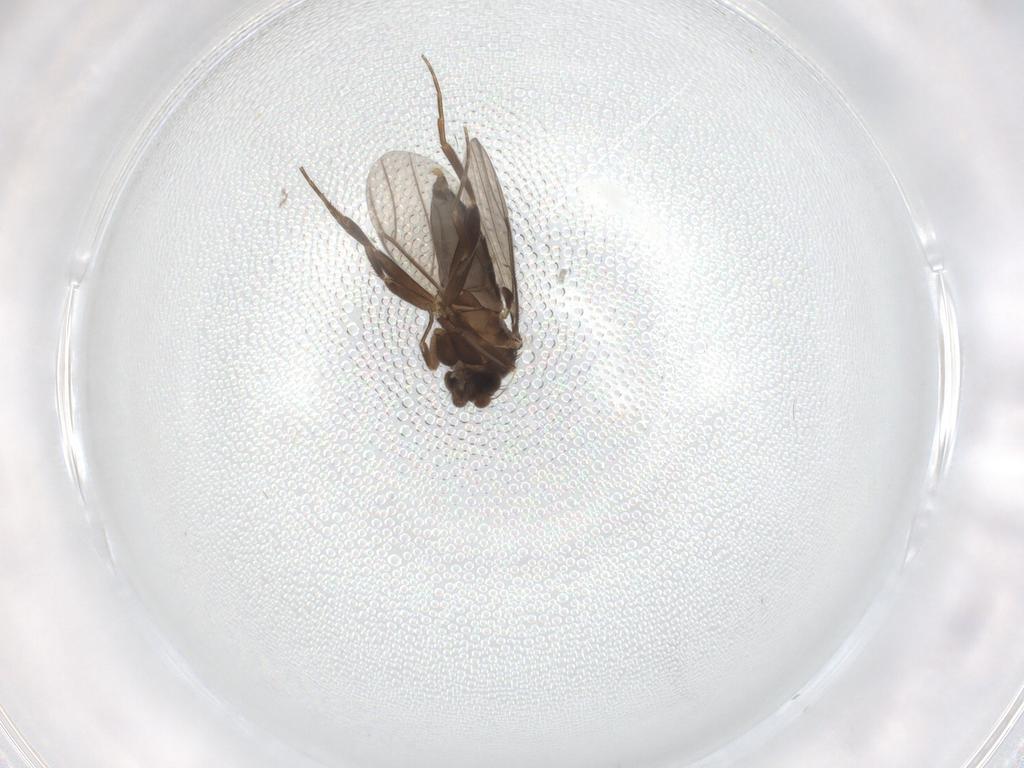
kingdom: Animalia
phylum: Arthropoda
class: Insecta
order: Diptera
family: Sciaridae
